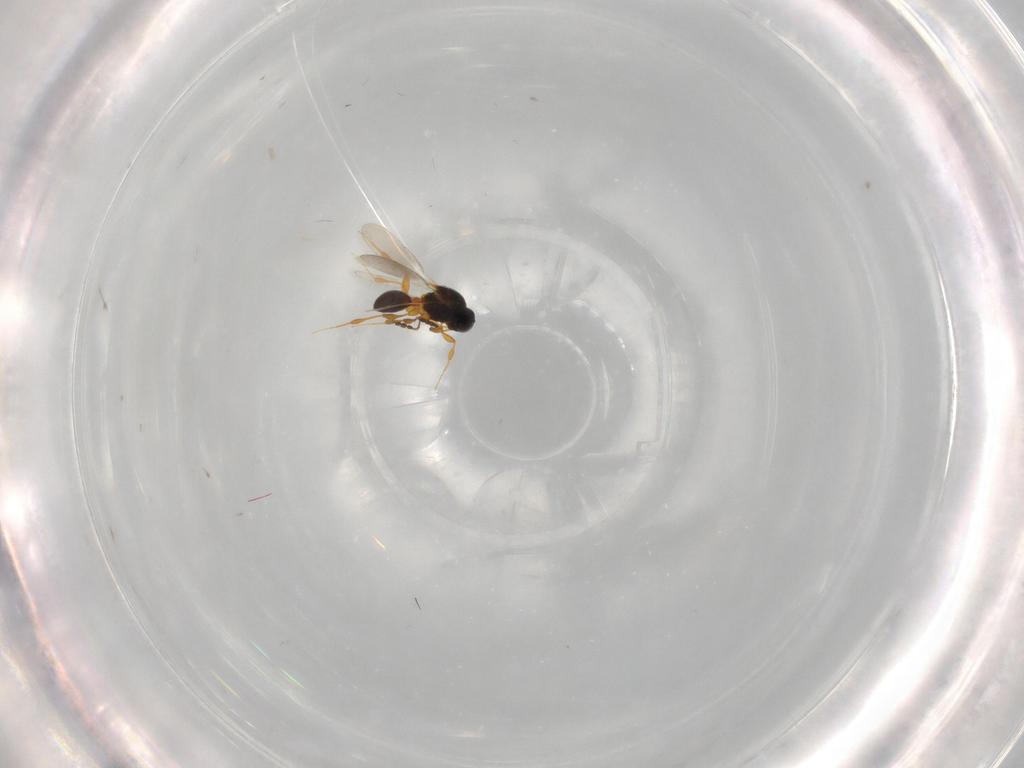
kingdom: Animalia
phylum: Arthropoda
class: Insecta
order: Hymenoptera
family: Platygastridae
